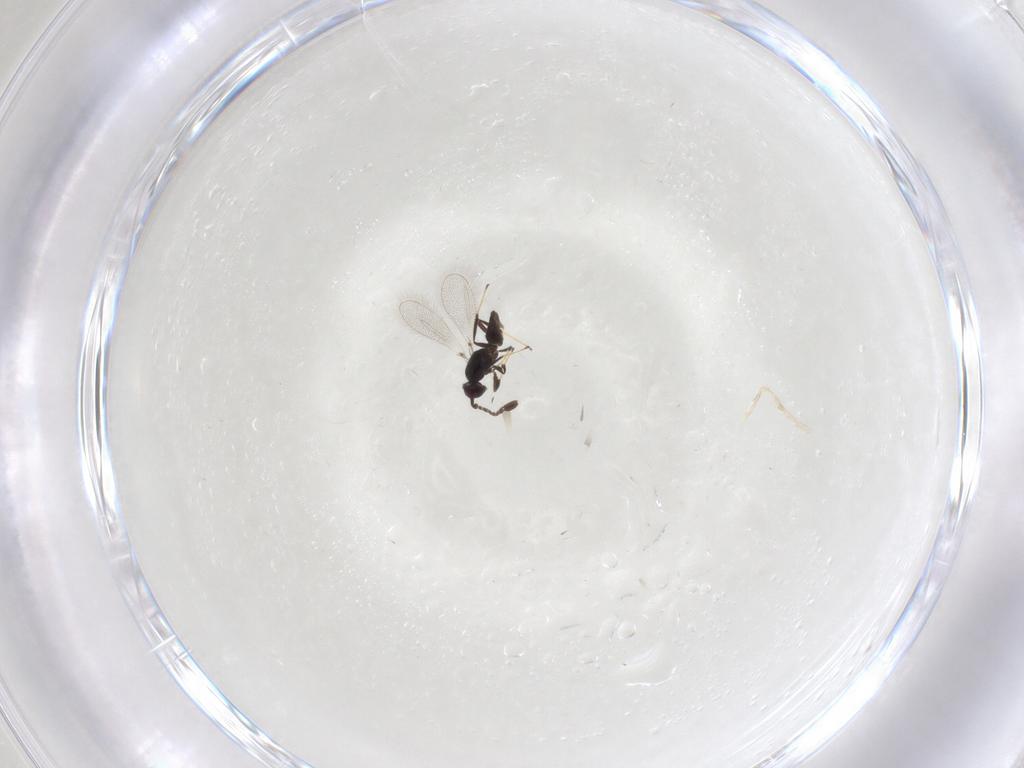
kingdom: Animalia
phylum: Arthropoda
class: Insecta
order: Hymenoptera
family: Mymaridae
